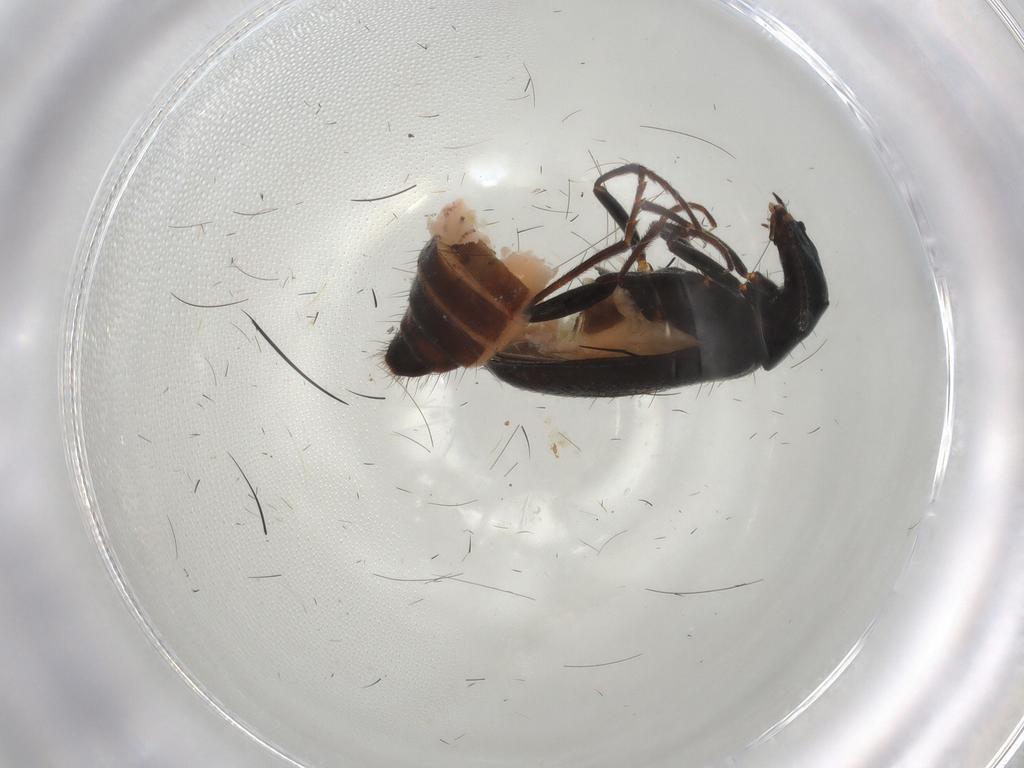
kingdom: Animalia
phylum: Arthropoda
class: Insecta
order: Coleoptera
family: Melyridae
